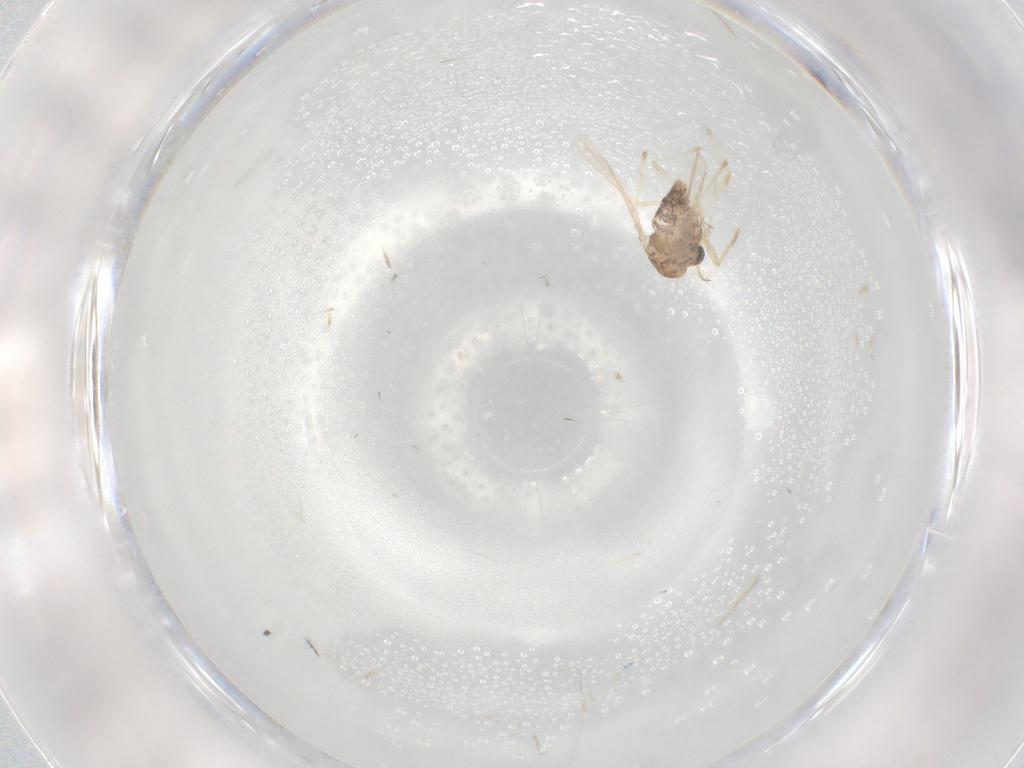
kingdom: Animalia
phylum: Arthropoda
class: Insecta
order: Diptera
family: Chironomidae
